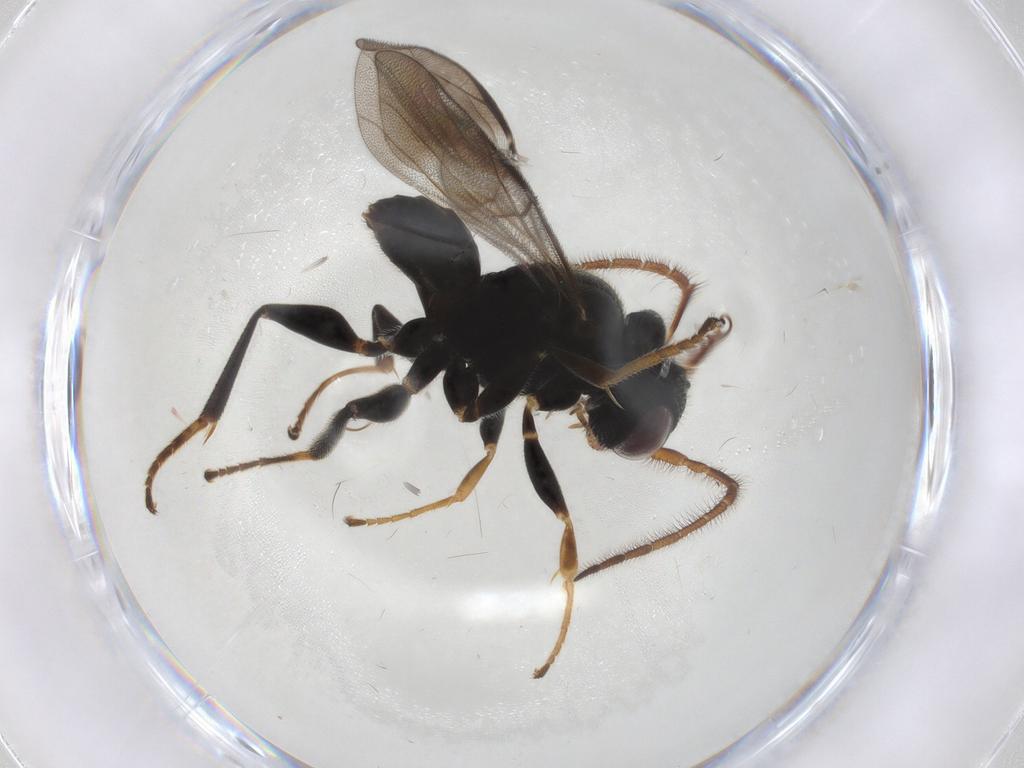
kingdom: Animalia
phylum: Arthropoda
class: Insecta
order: Hymenoptera
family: Dryinidae
